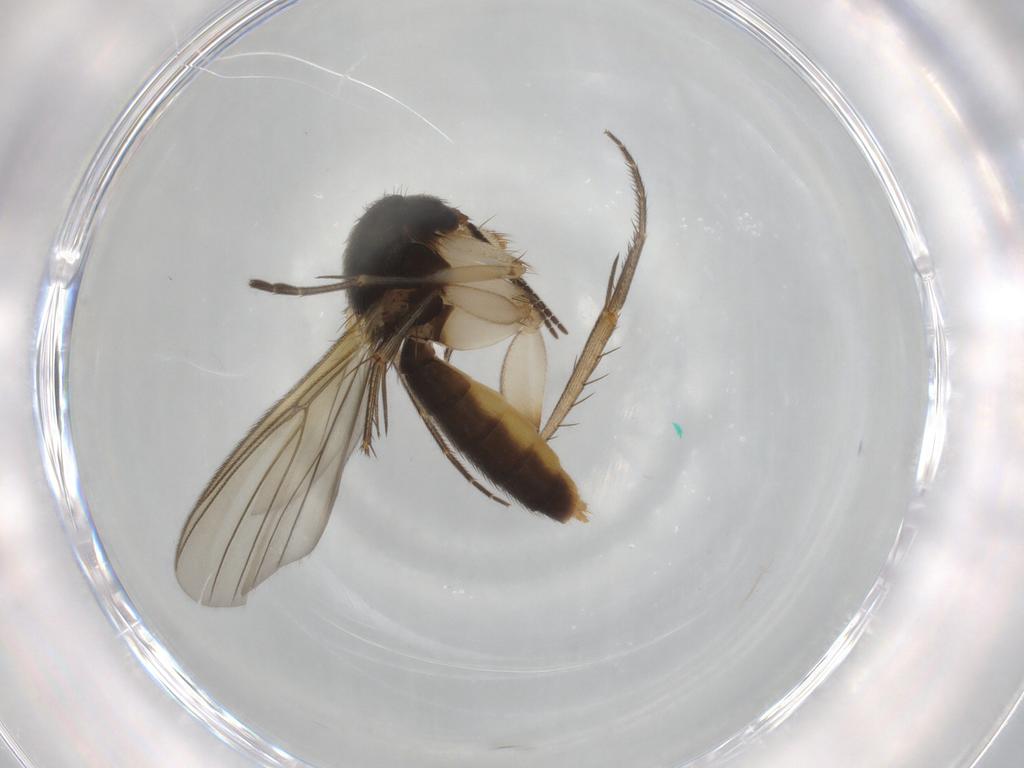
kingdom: Animalia
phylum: Arthropoda
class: Insecta
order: Diptera
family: Mycetophilidae
